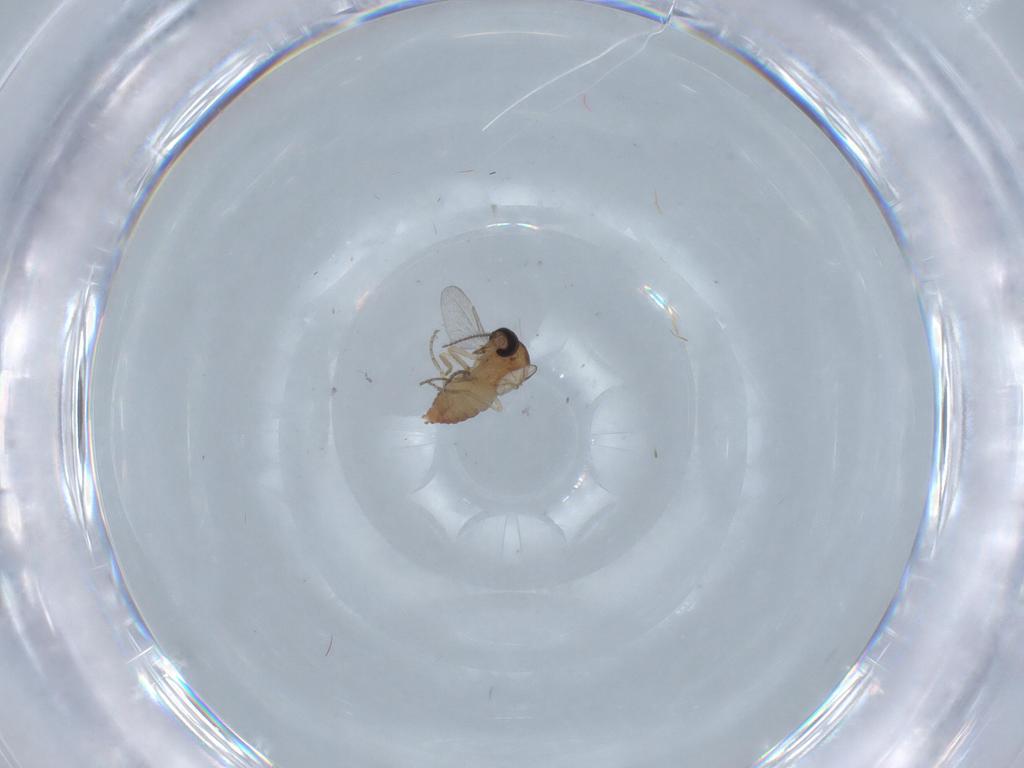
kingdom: Animalia
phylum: Arthropoda
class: Insecta
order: Diptera
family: Ceratopogonidae
